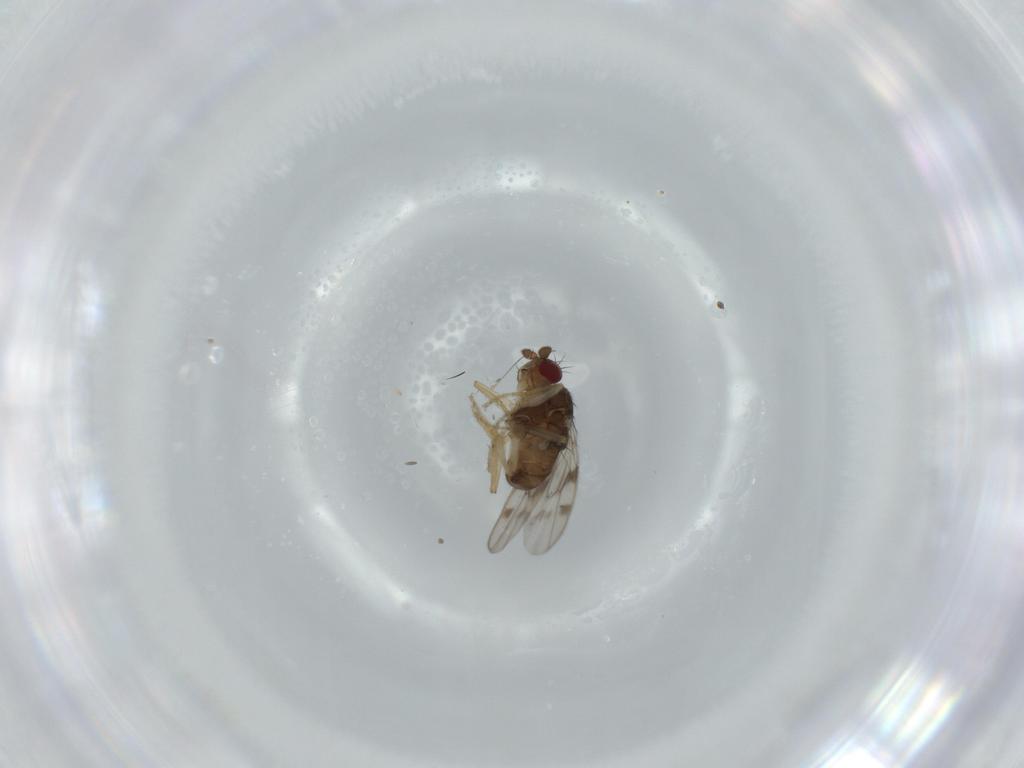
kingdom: Animalia
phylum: Arthropoda
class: Insecta
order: Diptera
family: Sphaeroceridae
